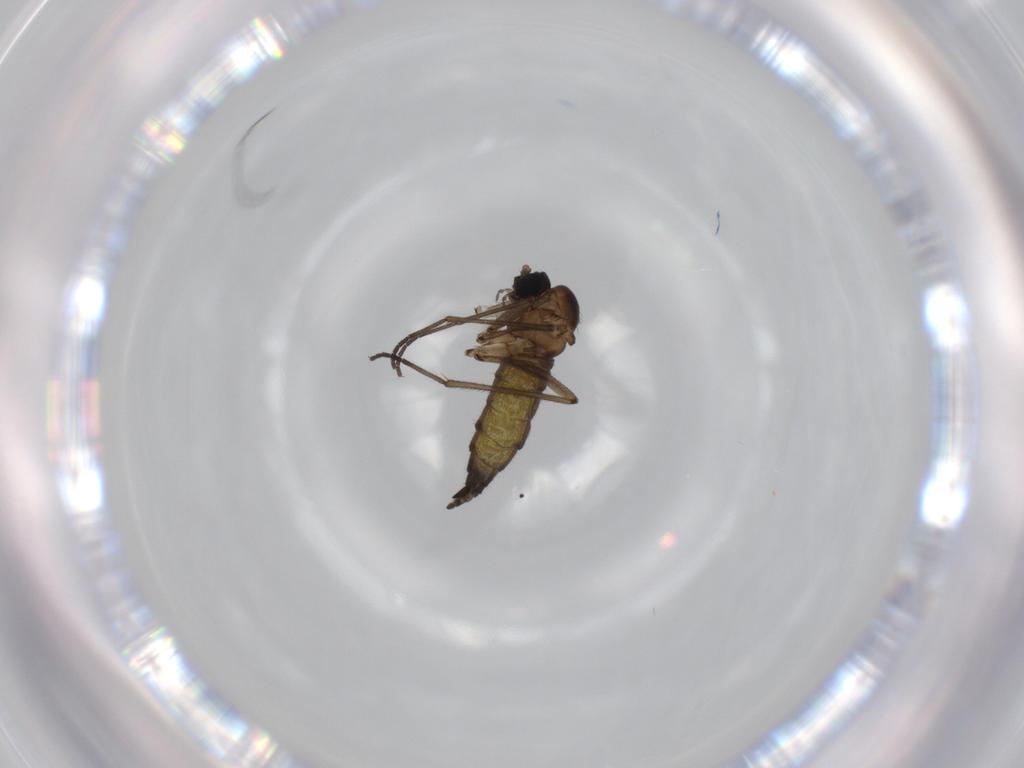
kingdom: Animalia
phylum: Arthropoda
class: Insecta
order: Diptera
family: Sciaridae
